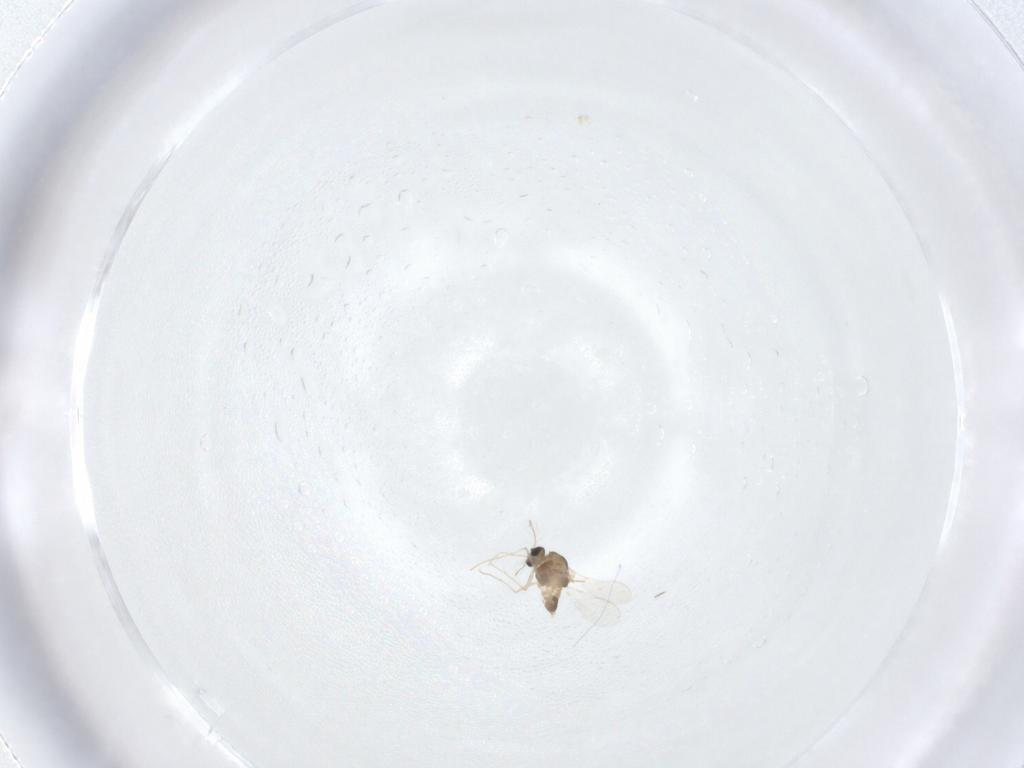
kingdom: Animalia
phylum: Arthropoda
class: Insecta
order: Diptera
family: Chironomidae
